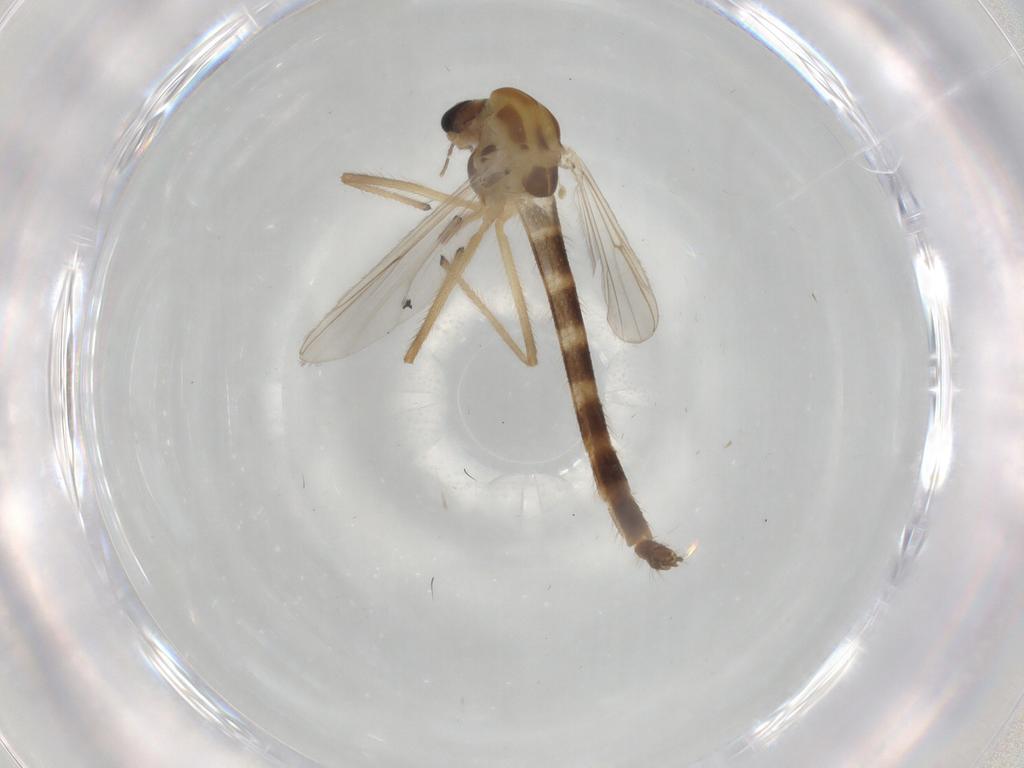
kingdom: Animalia
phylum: Arthropoda
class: Insecta
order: Diptera
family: Chironomidae
